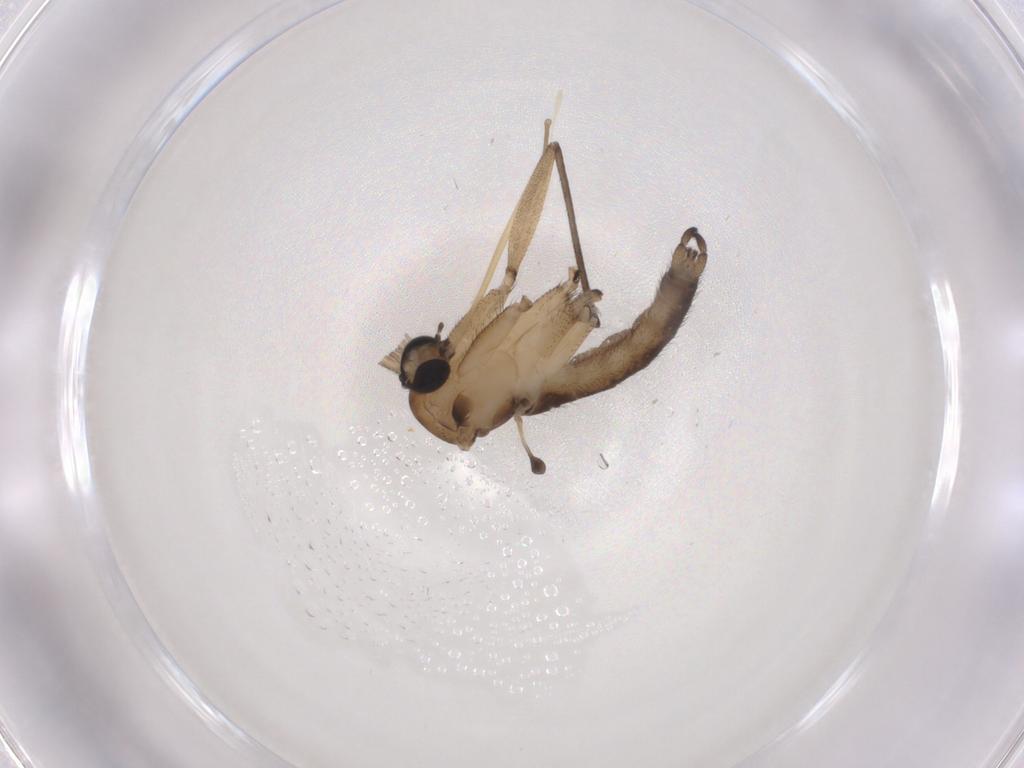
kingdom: Animalia
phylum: Arthropoda
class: Insecta
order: Diptera
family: Sciaridae
